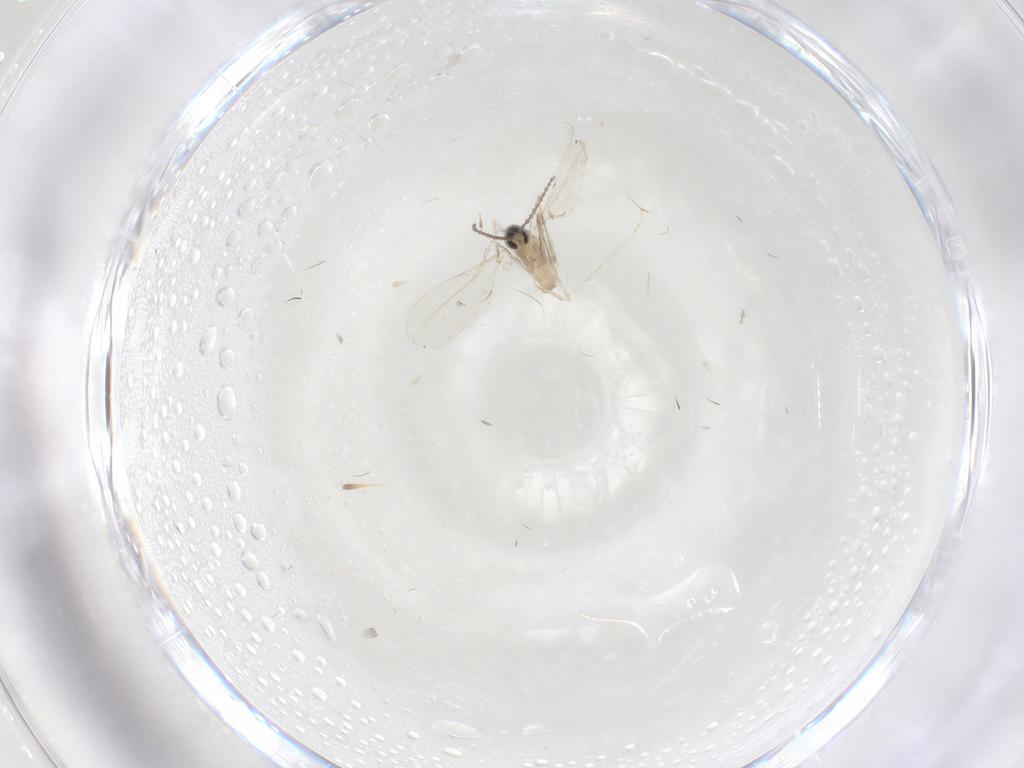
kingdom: Animalia
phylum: Arthropoda
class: Insecta
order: Diptera
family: Cecidomyiidae
